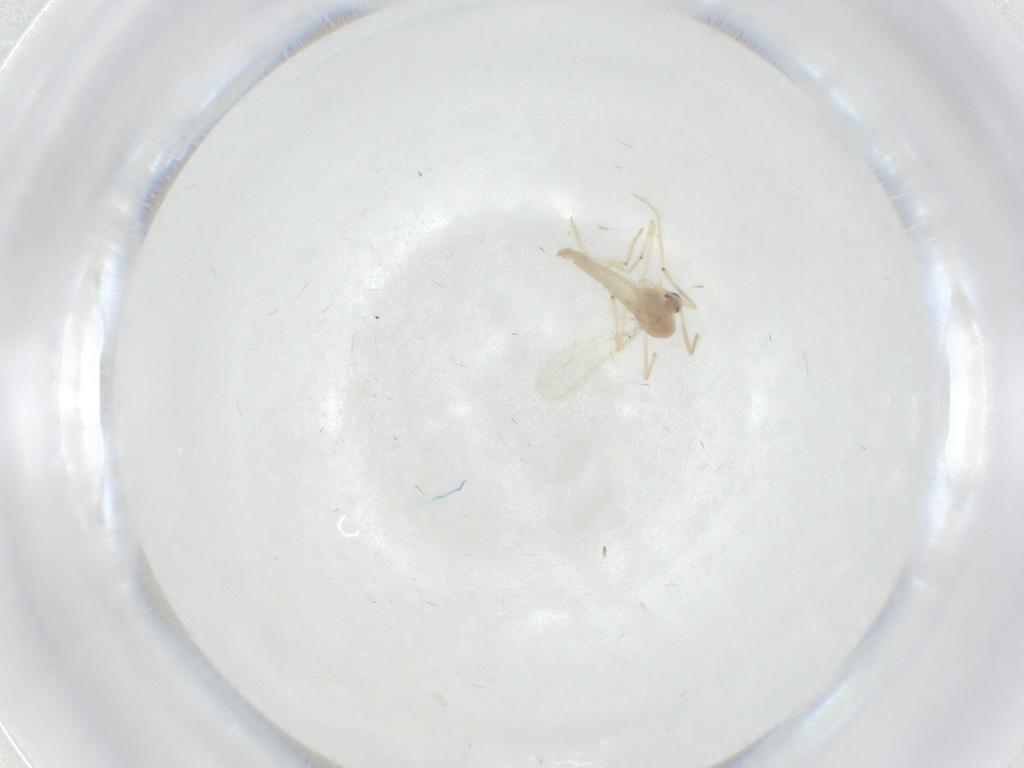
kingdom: Animalia
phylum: Arthropoda
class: Insecta
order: Diptera
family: Chironomidae
